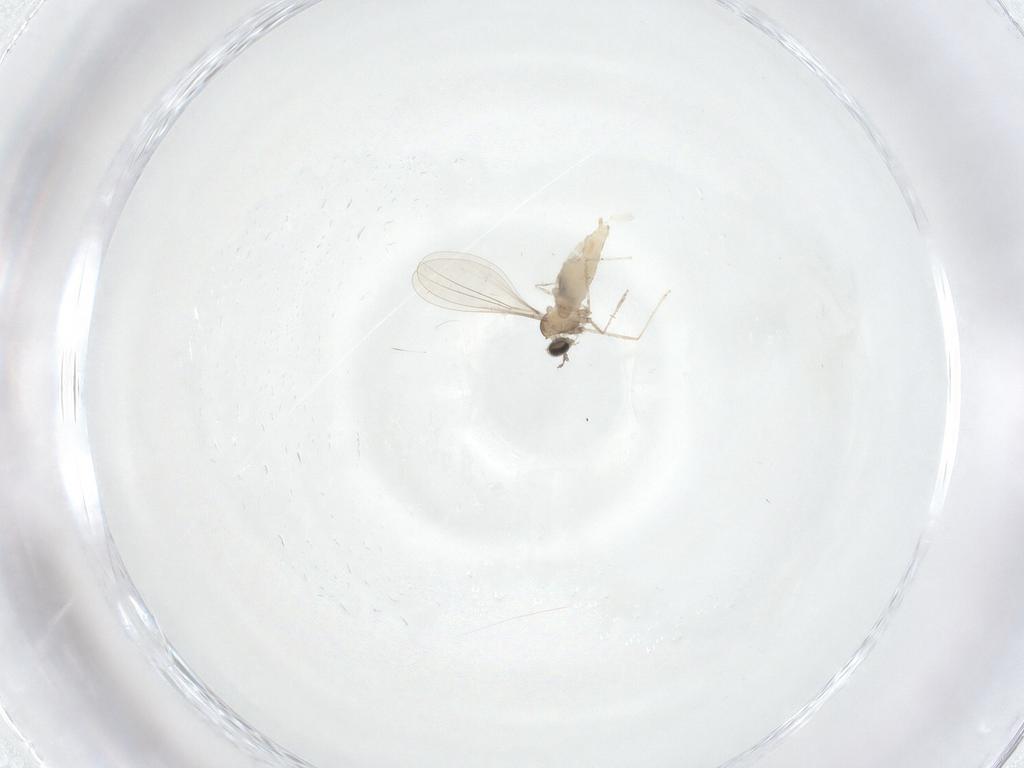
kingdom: Animalia
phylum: Arthropoda
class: Insecta
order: Diptera
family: Cecidomyiidae
